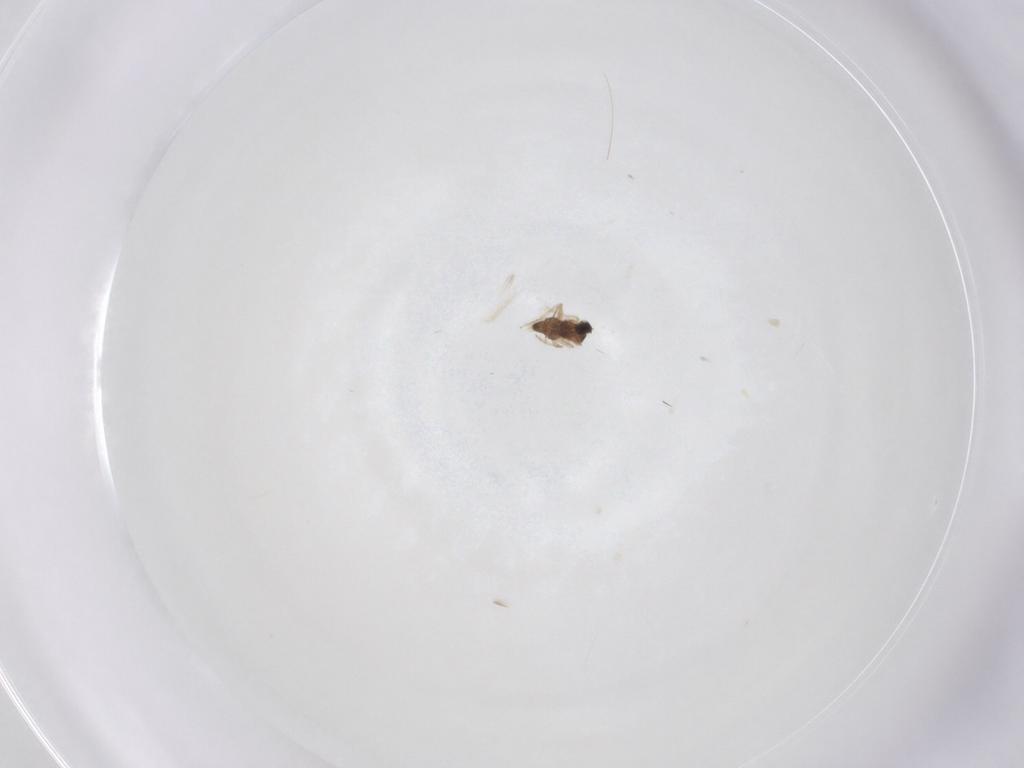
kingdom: Animalia
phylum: Arthropoda
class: Insecta
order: Diptera
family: Cecidomyiidae
